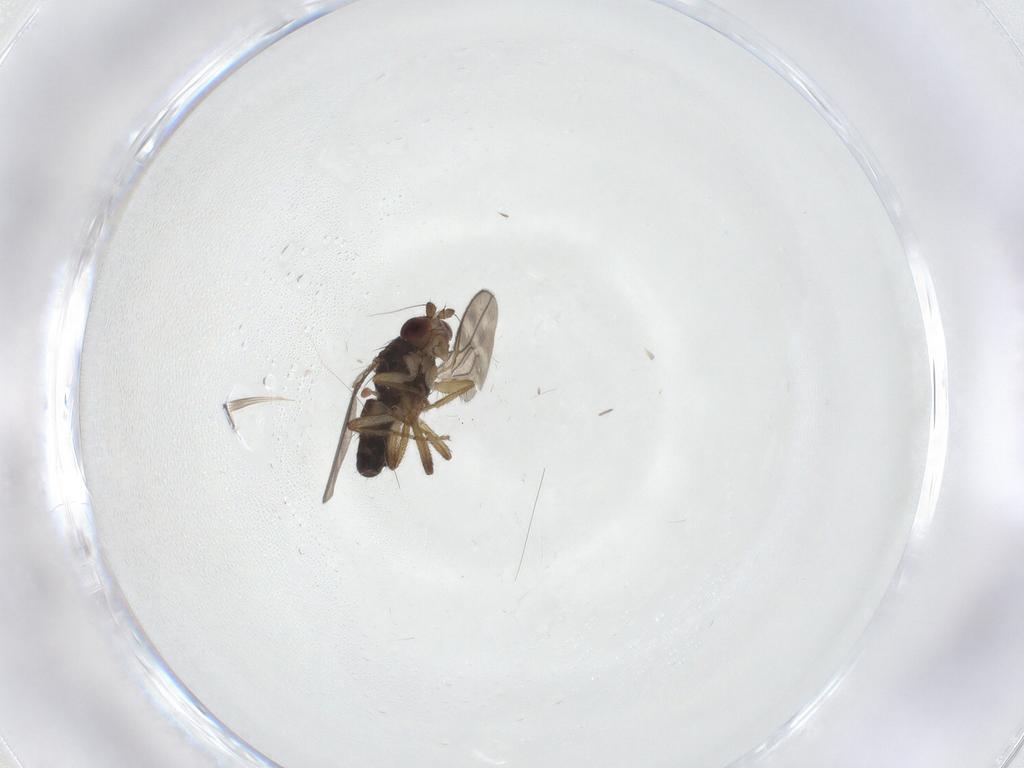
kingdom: Animalia
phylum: Arthropoda
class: Insecta
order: Diptera
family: Sphaeroceridae
